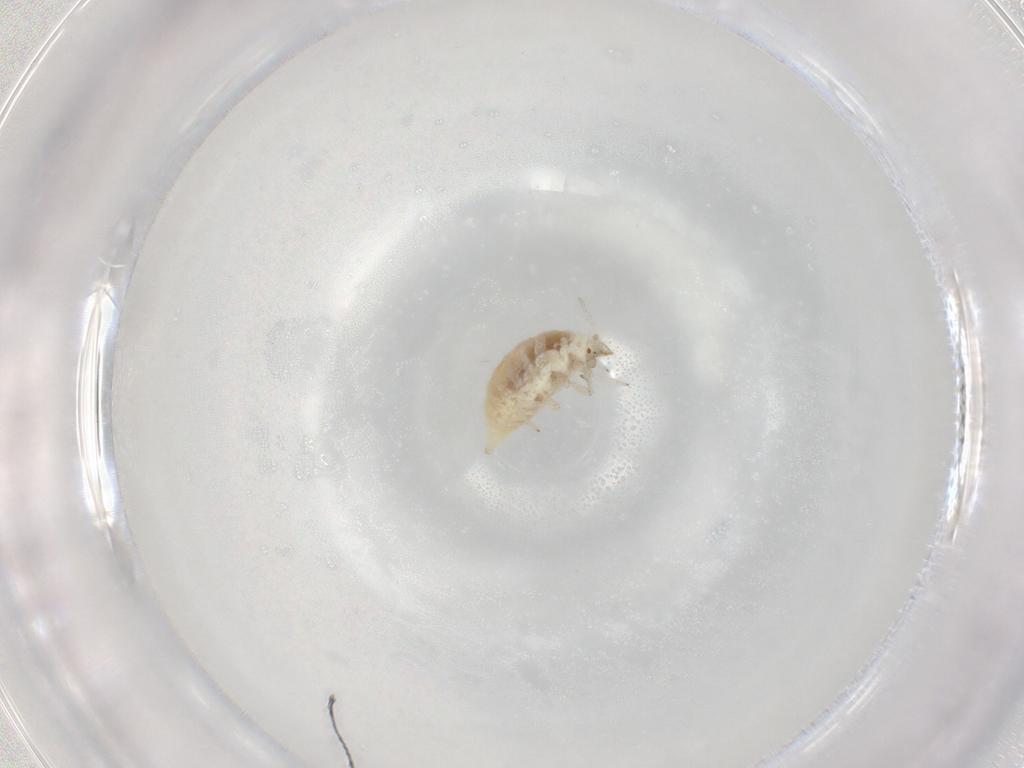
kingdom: Animalia
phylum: Arthropoda
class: Insecta
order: Neuroptera
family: Coniopterygidae
